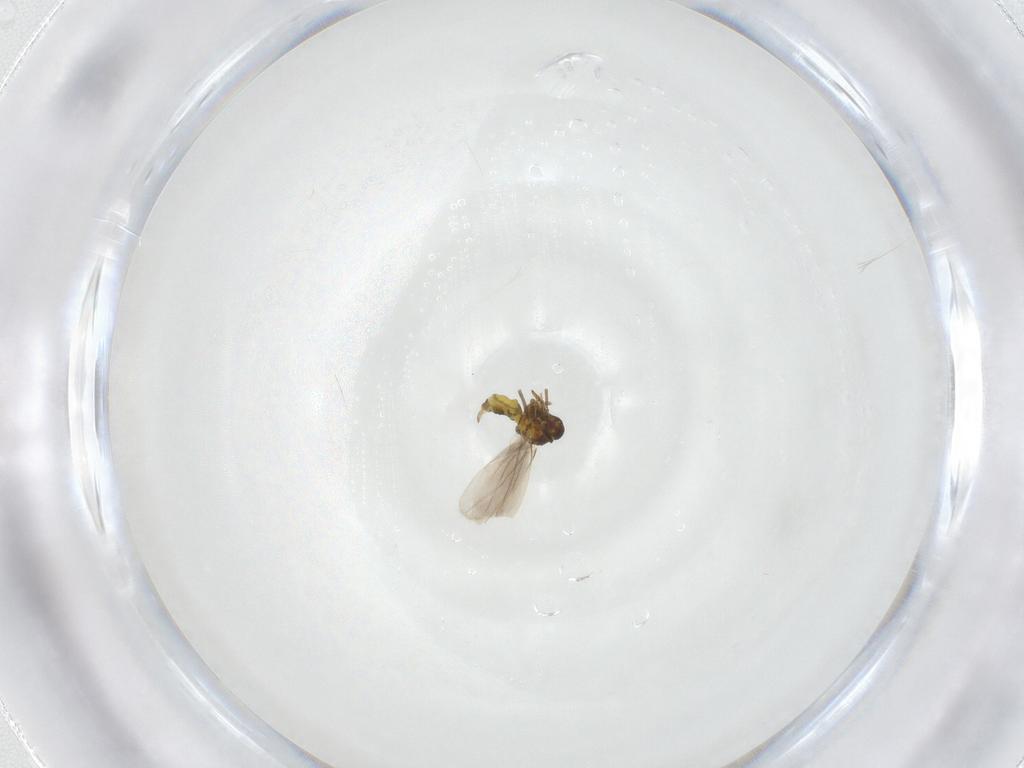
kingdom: Animalia
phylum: Arthropoda
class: Insecta
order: Hemiptera
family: Aleyrodidae
